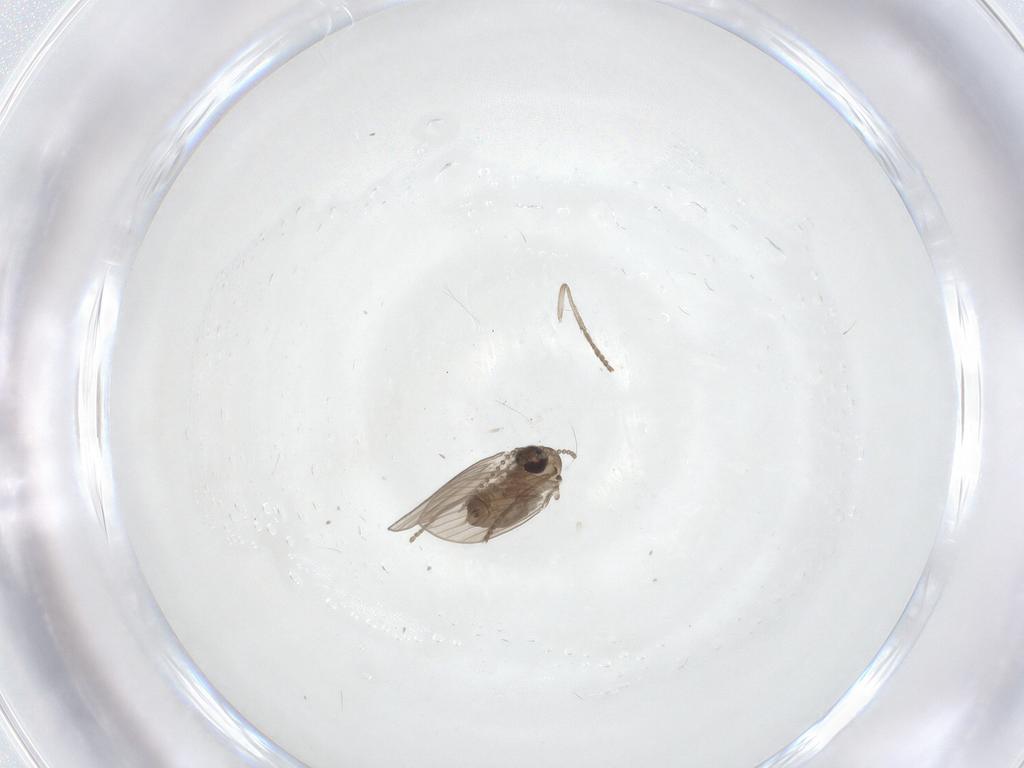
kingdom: Animalia
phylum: Arthropoda
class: Insecta
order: Diptera
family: Psychodidae
